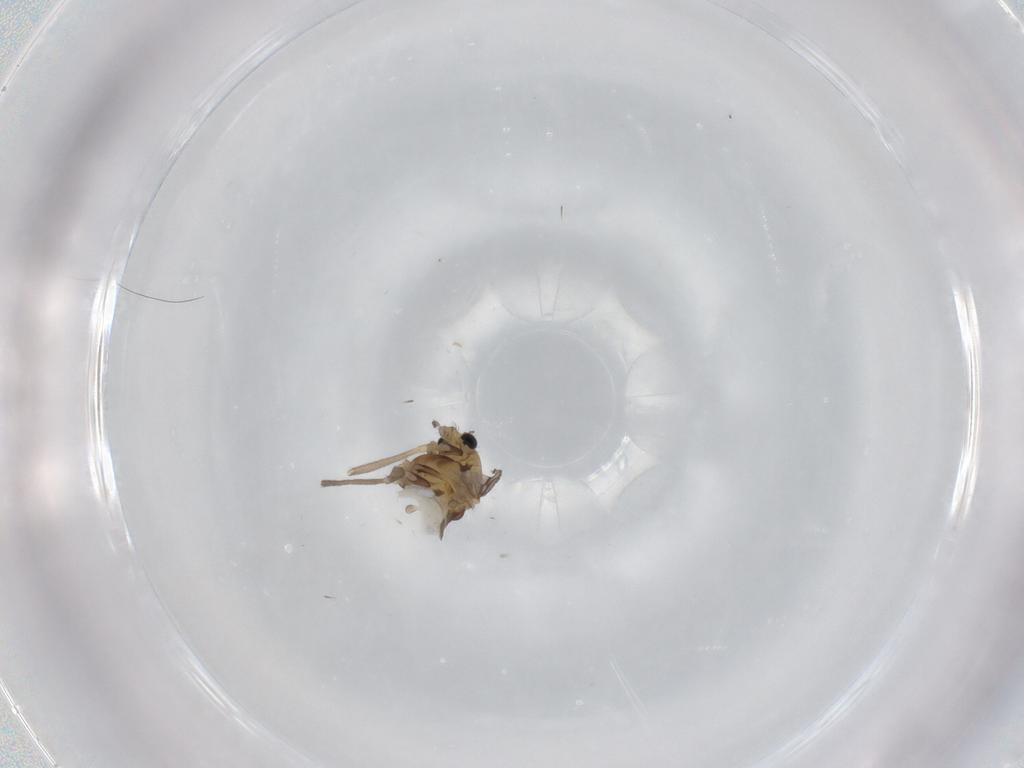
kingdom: Animalia
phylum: Arthropoda
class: Insecta
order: Diptera
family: Chironomidae
